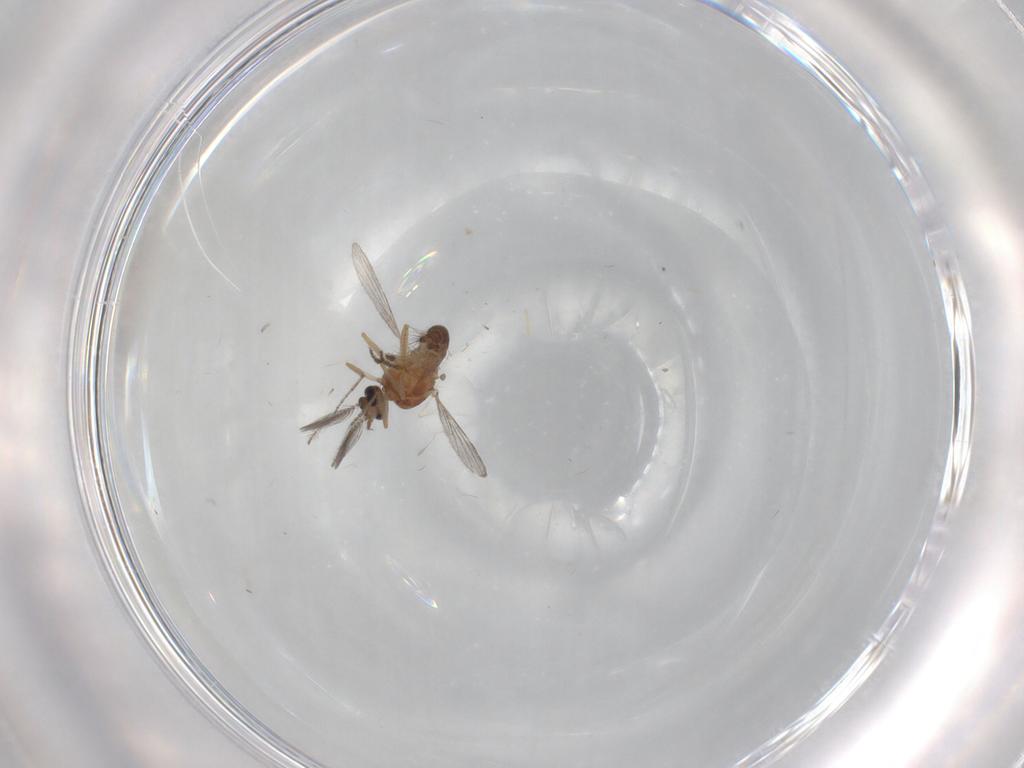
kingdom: Animalia
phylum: Arthropoda
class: Insecta
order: Diptera
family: Ceratopogonidae
